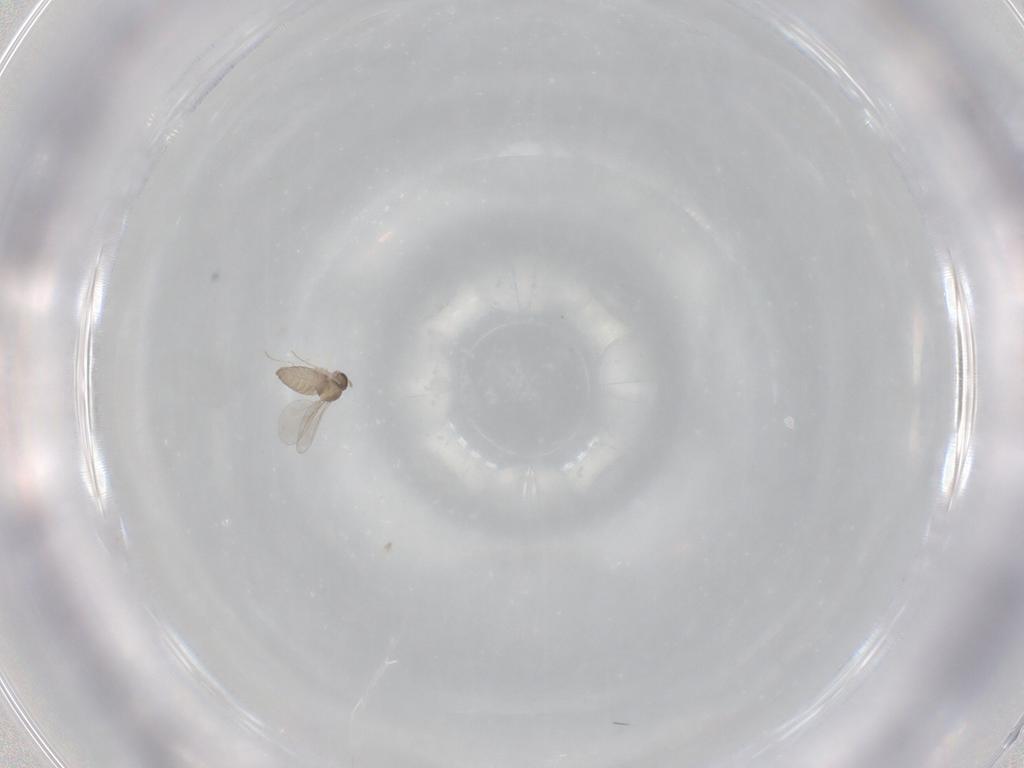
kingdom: Animalia
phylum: Arthropoda
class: Insecta
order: Diptera
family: Cecidomyiidae
